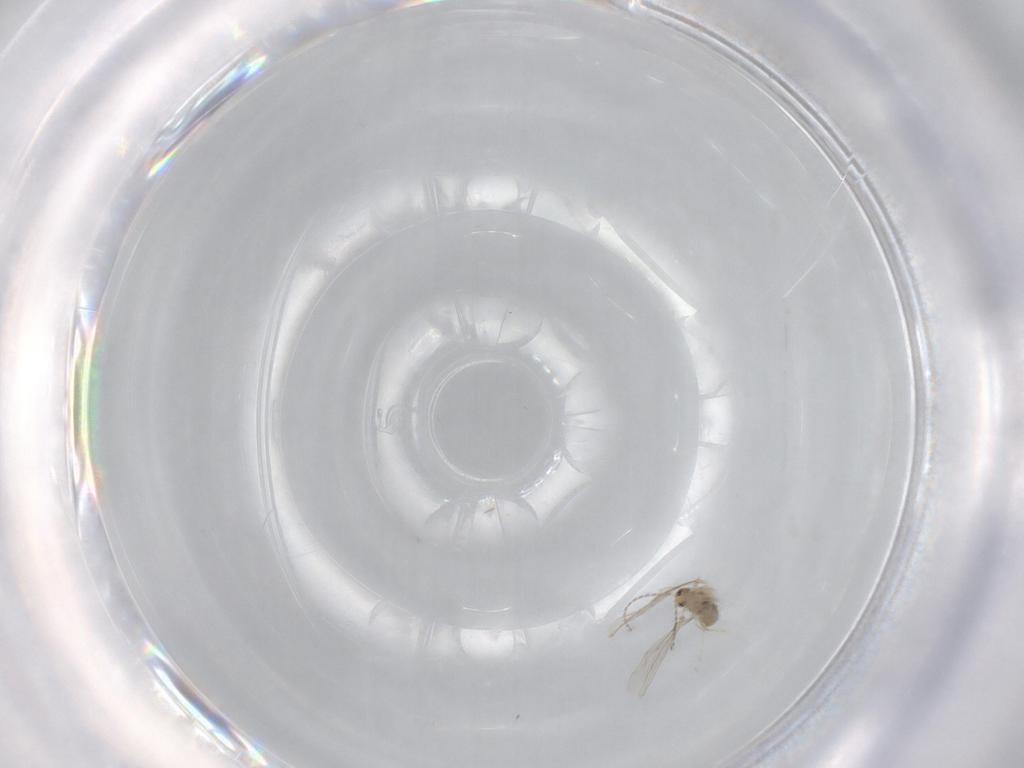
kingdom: Animalia
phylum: Arthropoda
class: Insecta
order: Diptera
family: Cecidomyiidae
